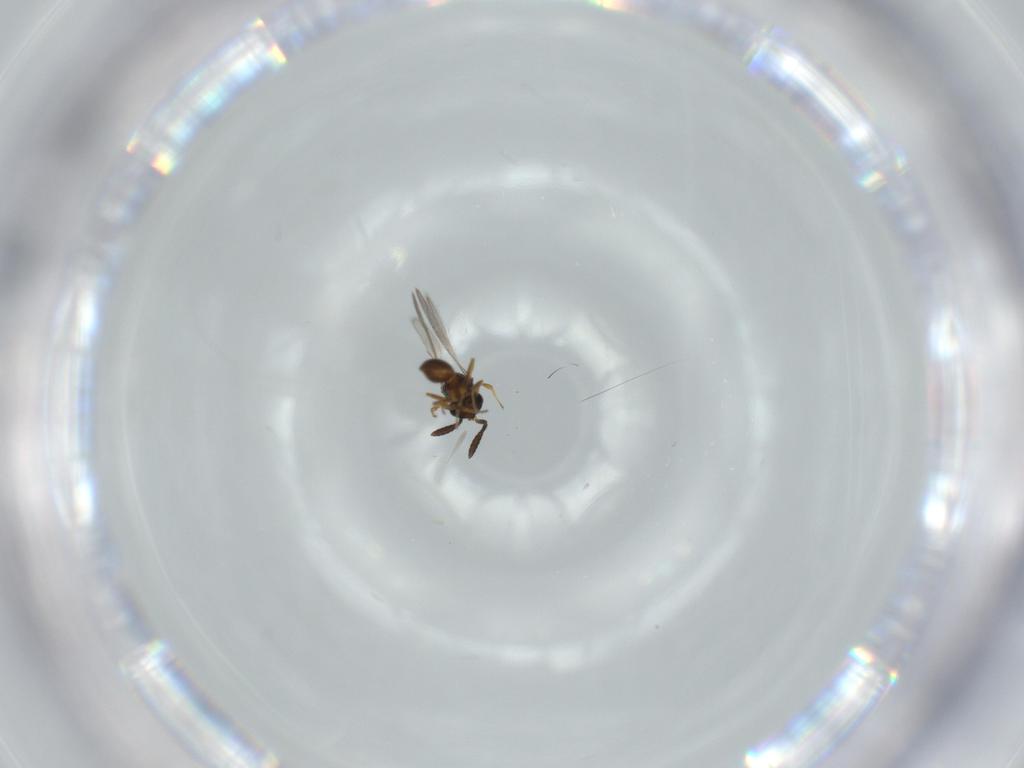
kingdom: Animalia
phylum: Arthropoda
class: Insecta
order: Hymenoptera
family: Scelionidae
